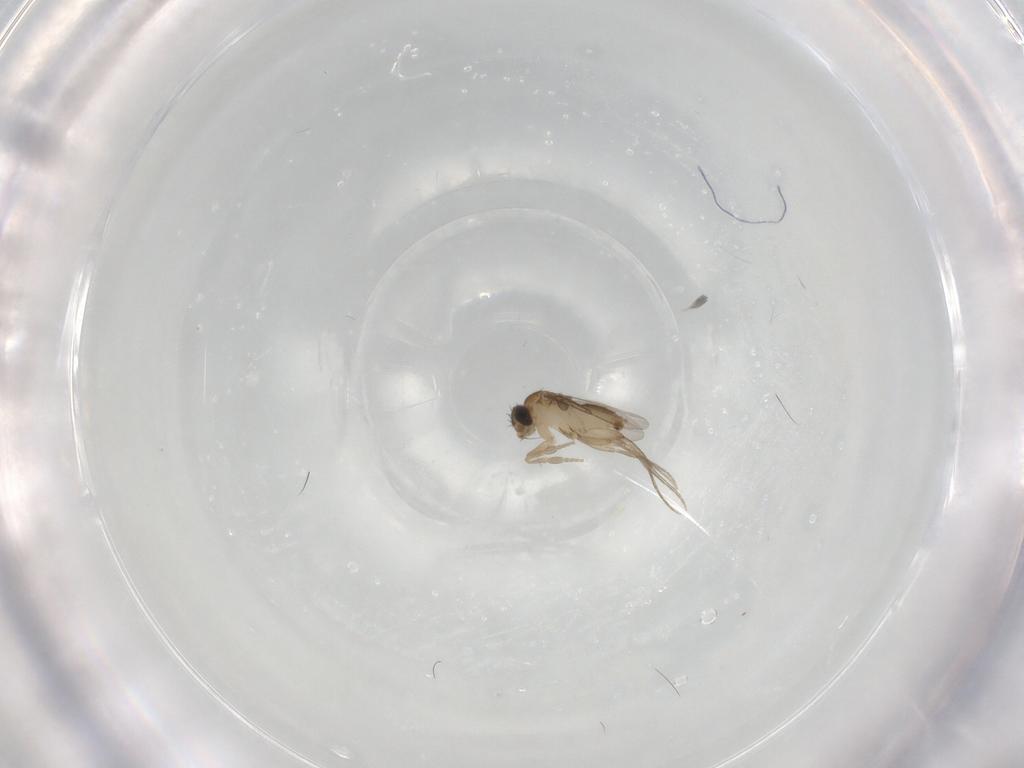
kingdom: Animalia
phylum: Arthropoda
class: Insecta
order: Diptera
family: Phoridae
